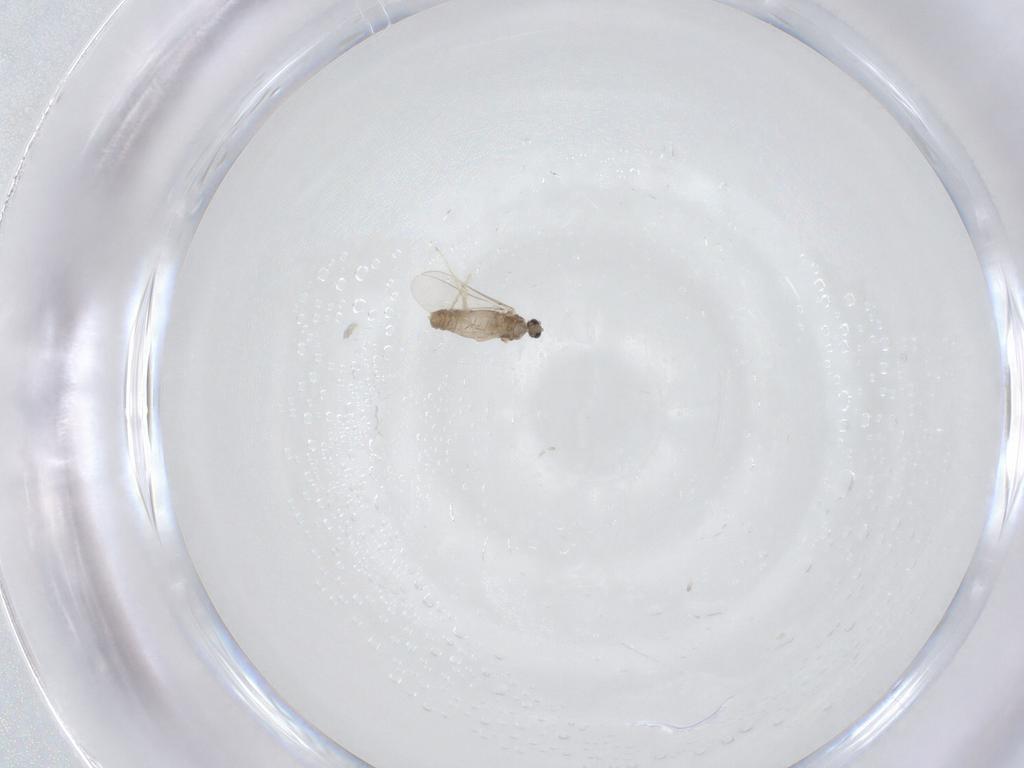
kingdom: Animalia
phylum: Arthropoda
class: Insecta
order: Diptera
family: Cecidomyiidae
